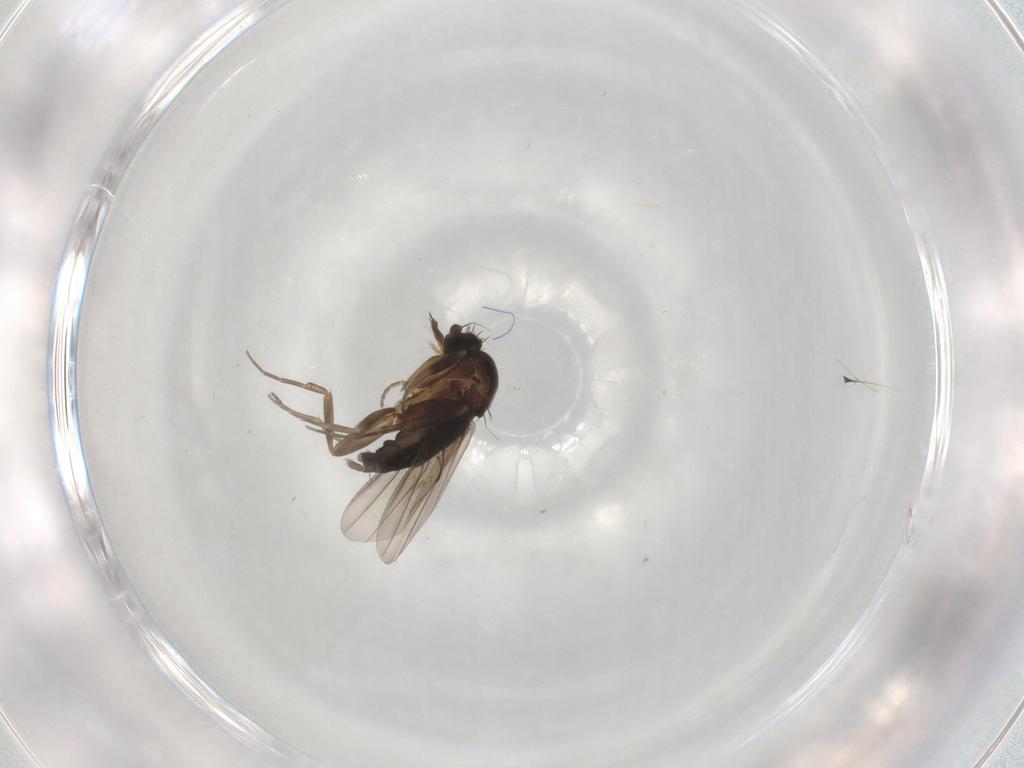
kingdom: Animalia
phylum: Arthropoda
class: Insecta
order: Diptera
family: Phoridae
